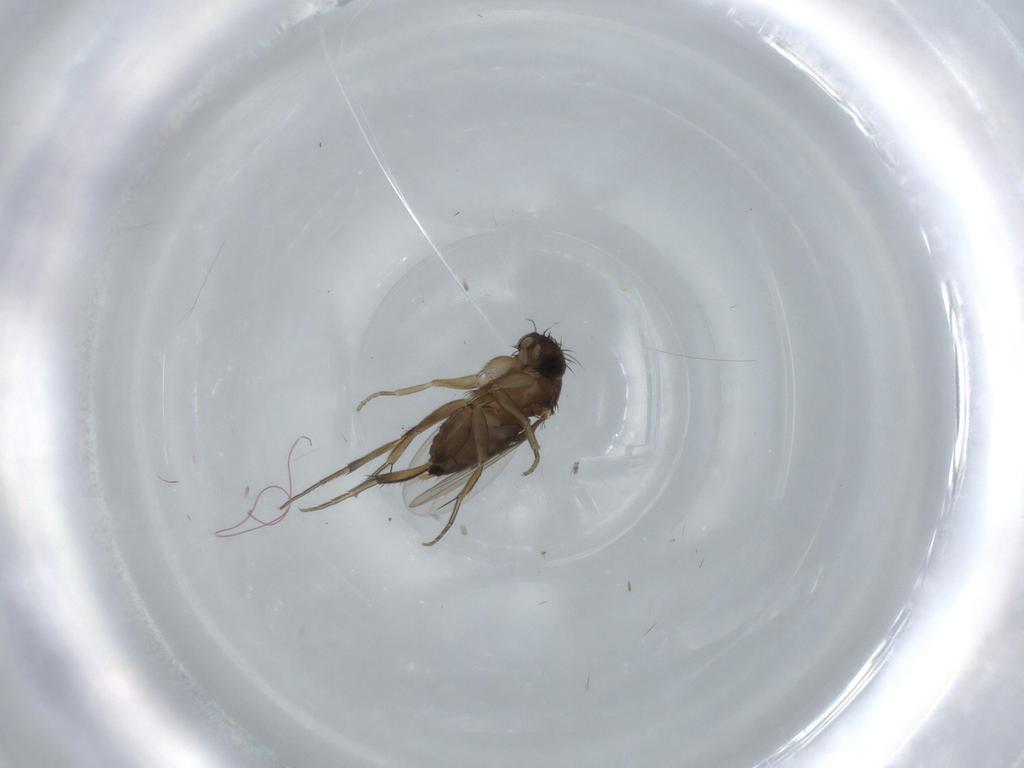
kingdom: Animalia
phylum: Arthropoda
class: Insecta
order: Diptera
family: Phoridae
